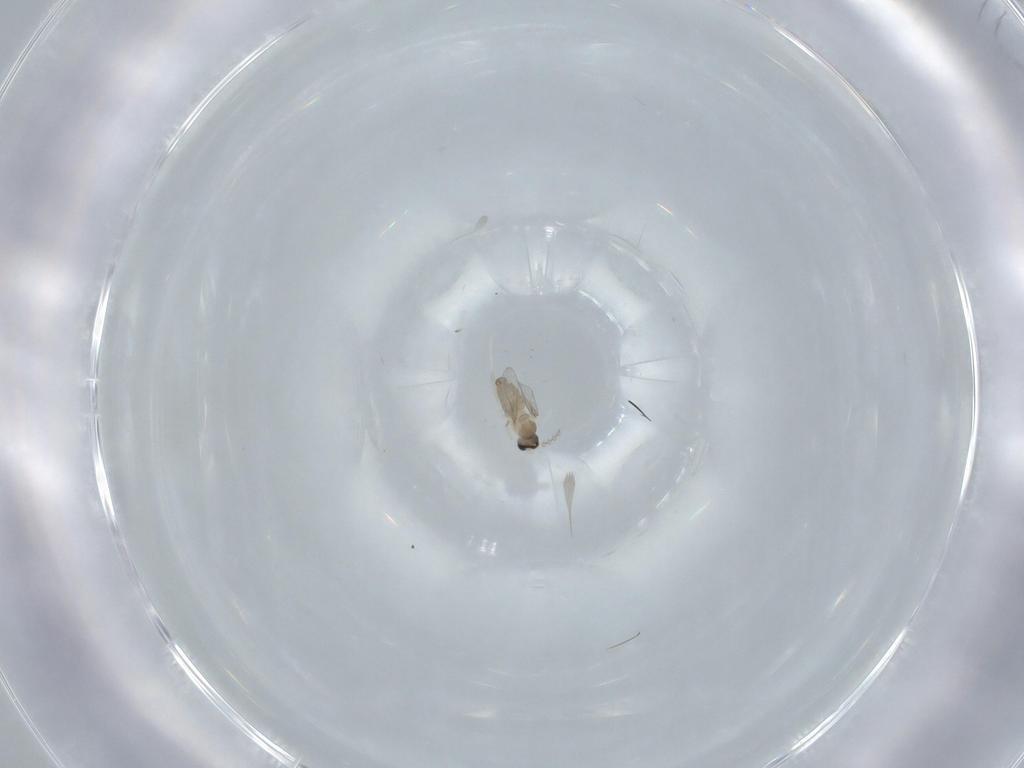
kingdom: Animalia
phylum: Arthropoda
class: Insecta
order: Diptera
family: Cecidomyiidae
